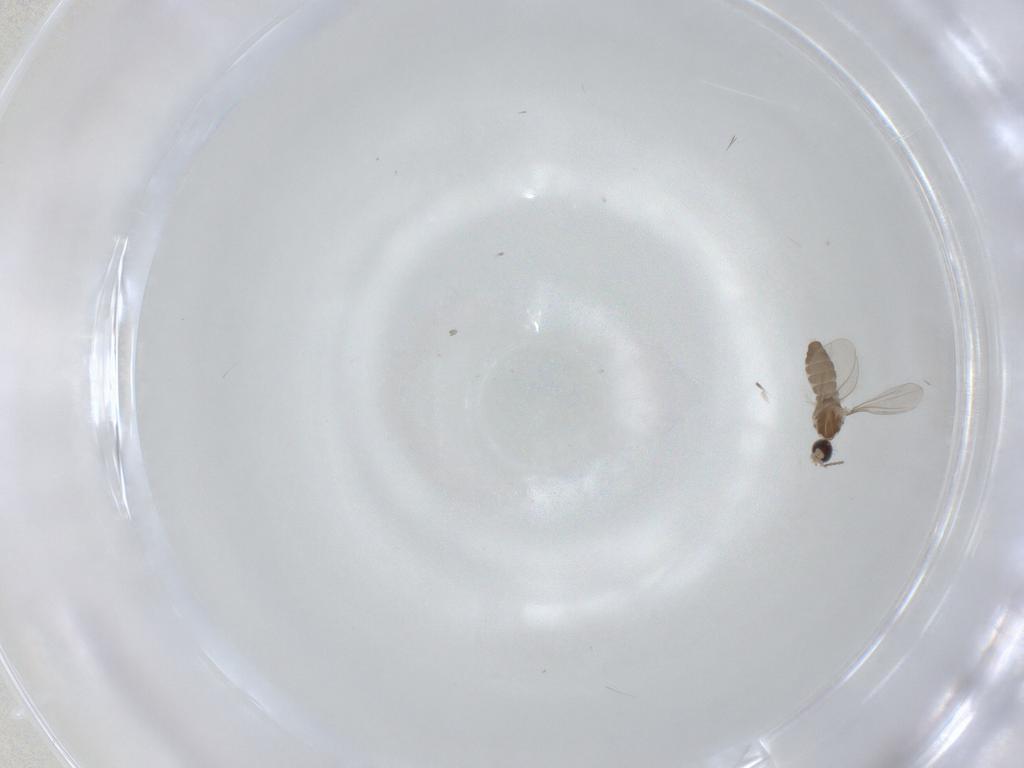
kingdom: Animalia
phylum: Arthropoda
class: Insecta
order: Diptera
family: Cecidomyiidae
